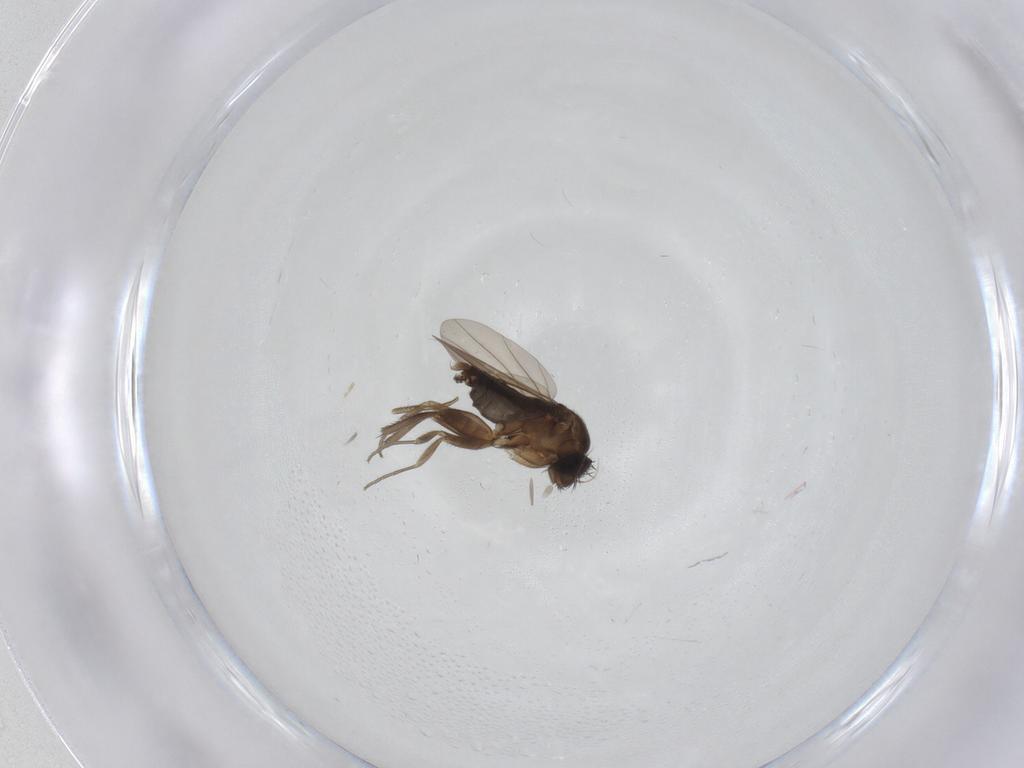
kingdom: Animalia
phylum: Arthropoda
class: Insecta
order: Diptera
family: Phoridae
